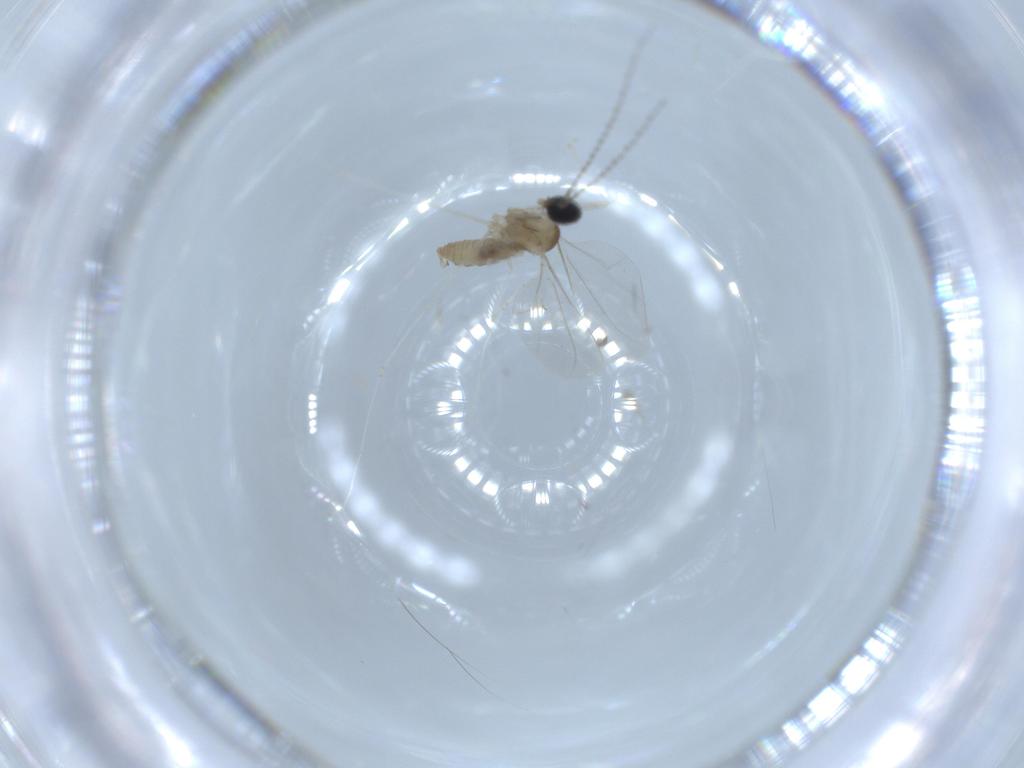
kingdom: Animalia
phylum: Arthropoda
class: Insecta
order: Diptera
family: Cecidomyiidae
